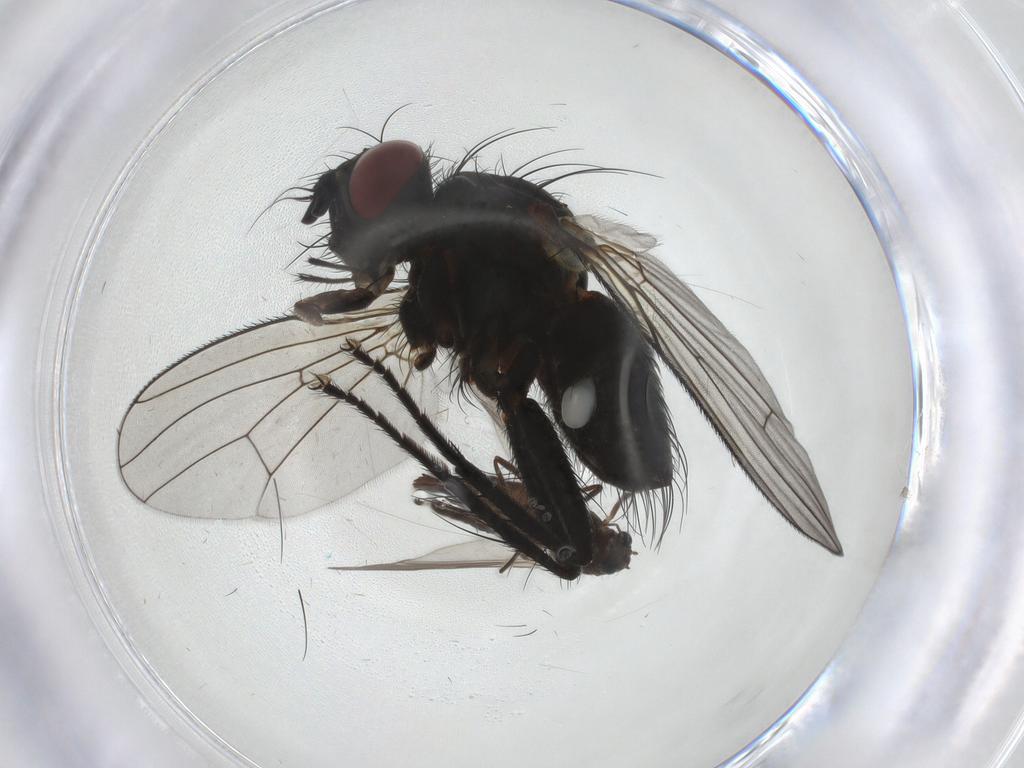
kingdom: Animalia
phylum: Arthropoda
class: Insecta
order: Diptera
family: Chironomidae
